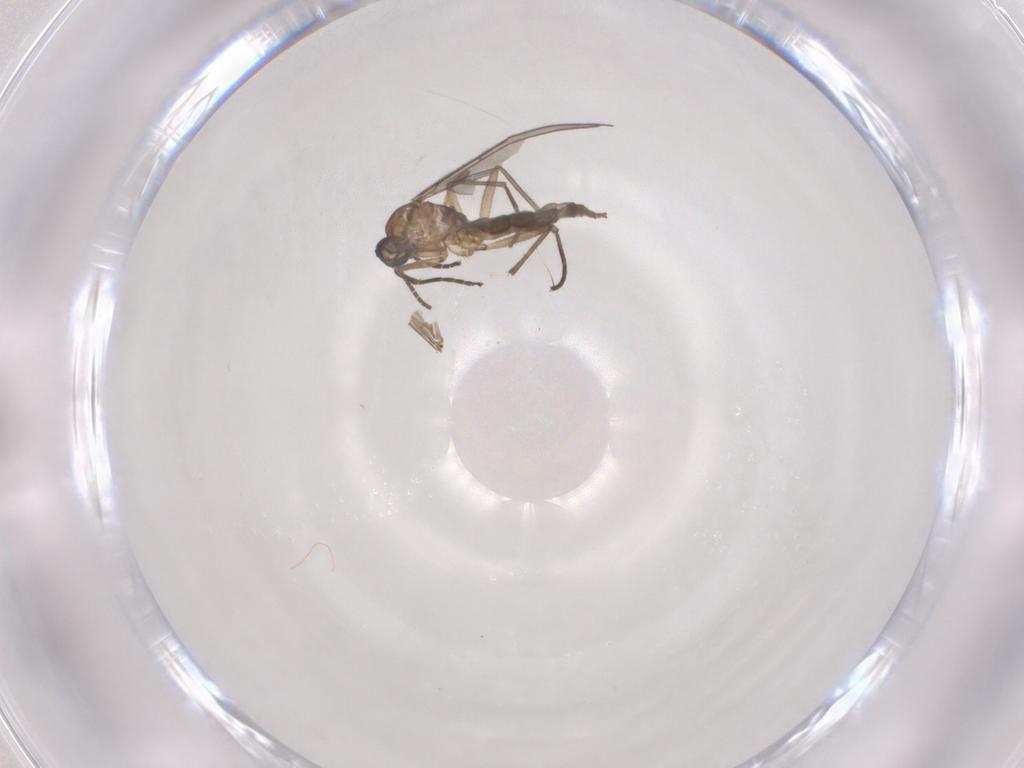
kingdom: Animalia
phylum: Arthropoda
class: Insecta
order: Diptera
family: Sciaridae
